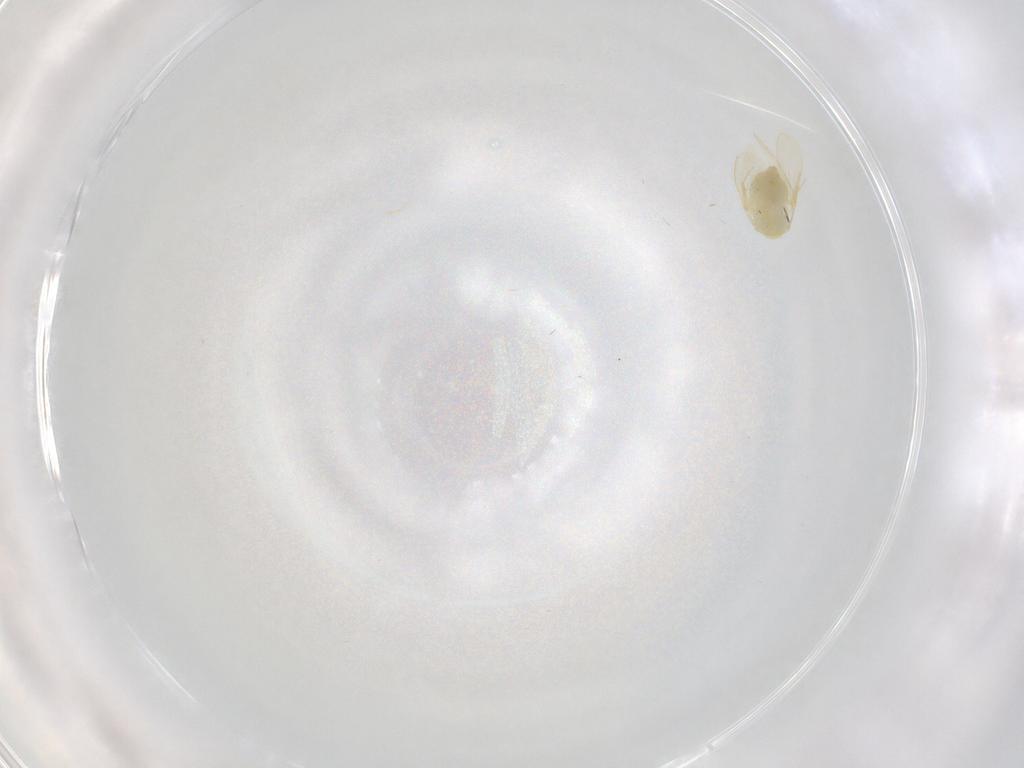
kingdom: Animalia
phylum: Arthropoda
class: Insecta
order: Hemiptera
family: Aleyrodidae
